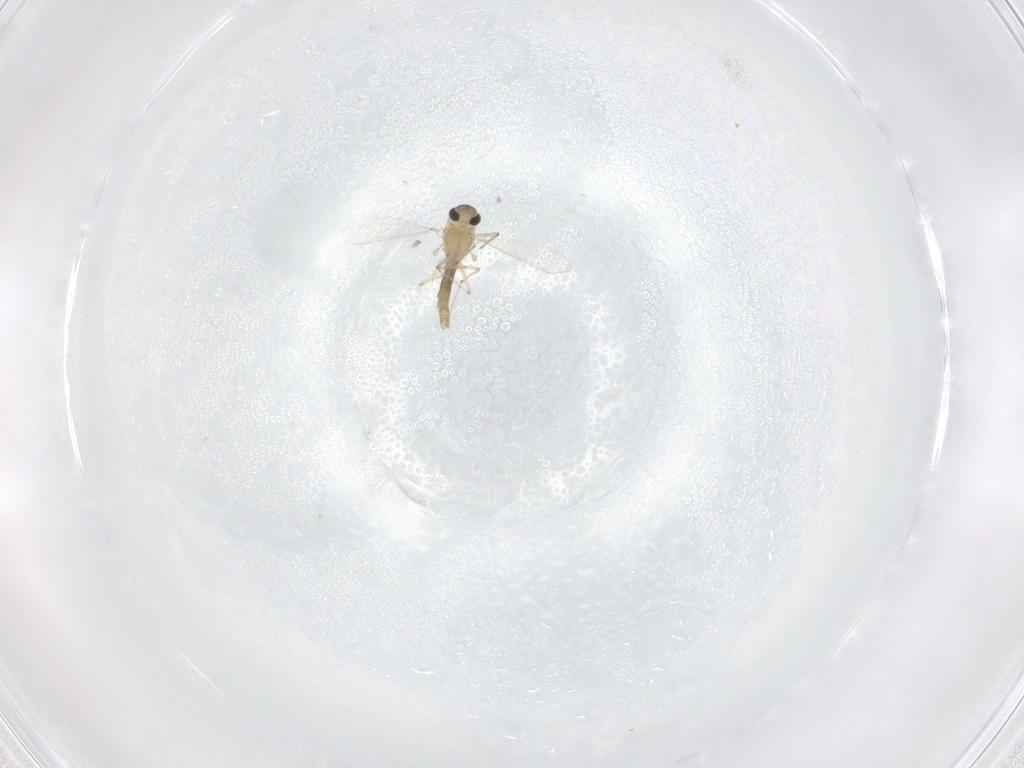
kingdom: Animalia
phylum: Arthropoda
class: Insecta
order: Diptera
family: Chironomidae
